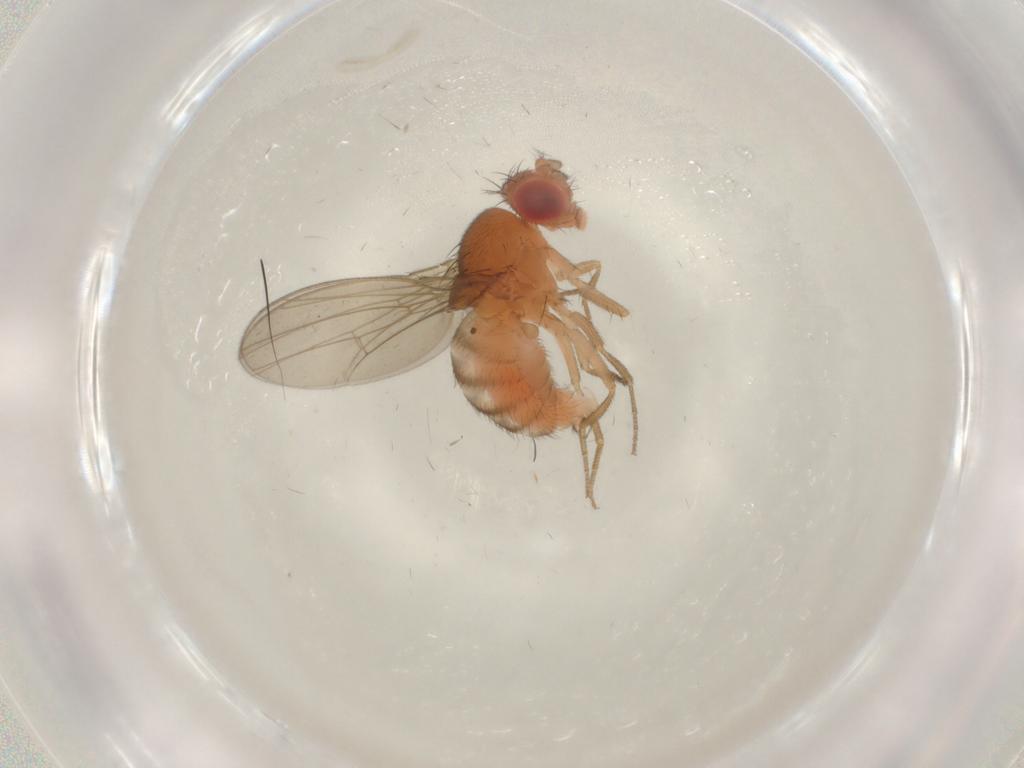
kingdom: Animalia
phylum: Arthropoda
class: Insecta
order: Diptera
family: Drosophilidae
